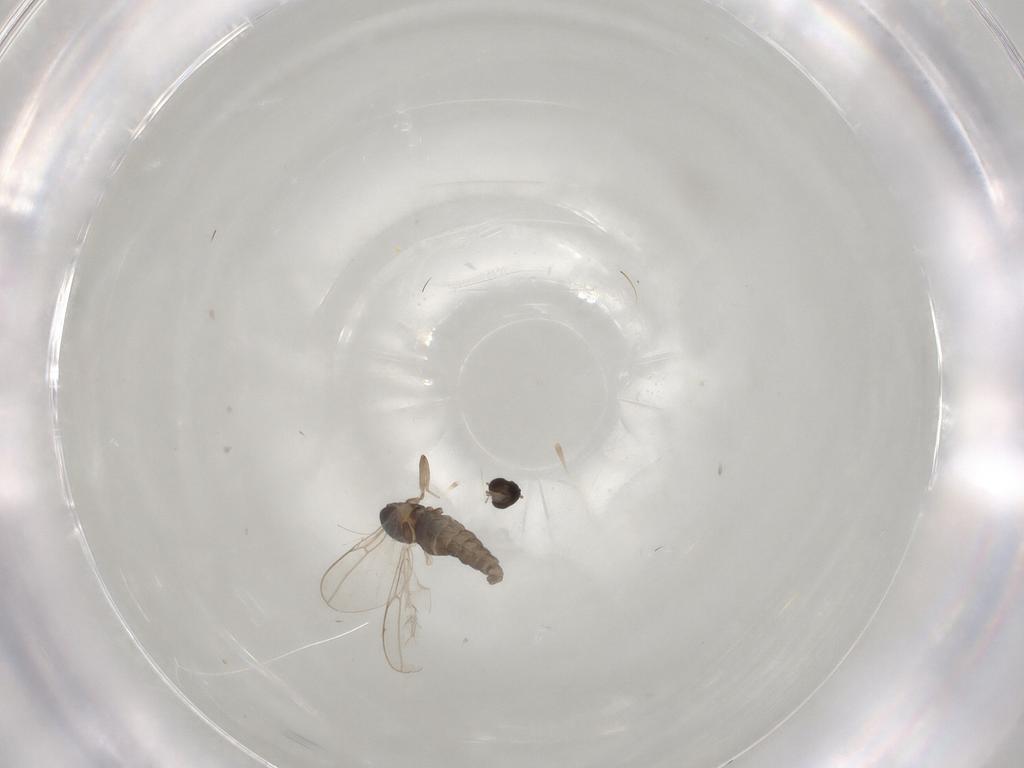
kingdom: Animalia
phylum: Arthropoda
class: Insecta
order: Diptera
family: Cecidomyiidae
